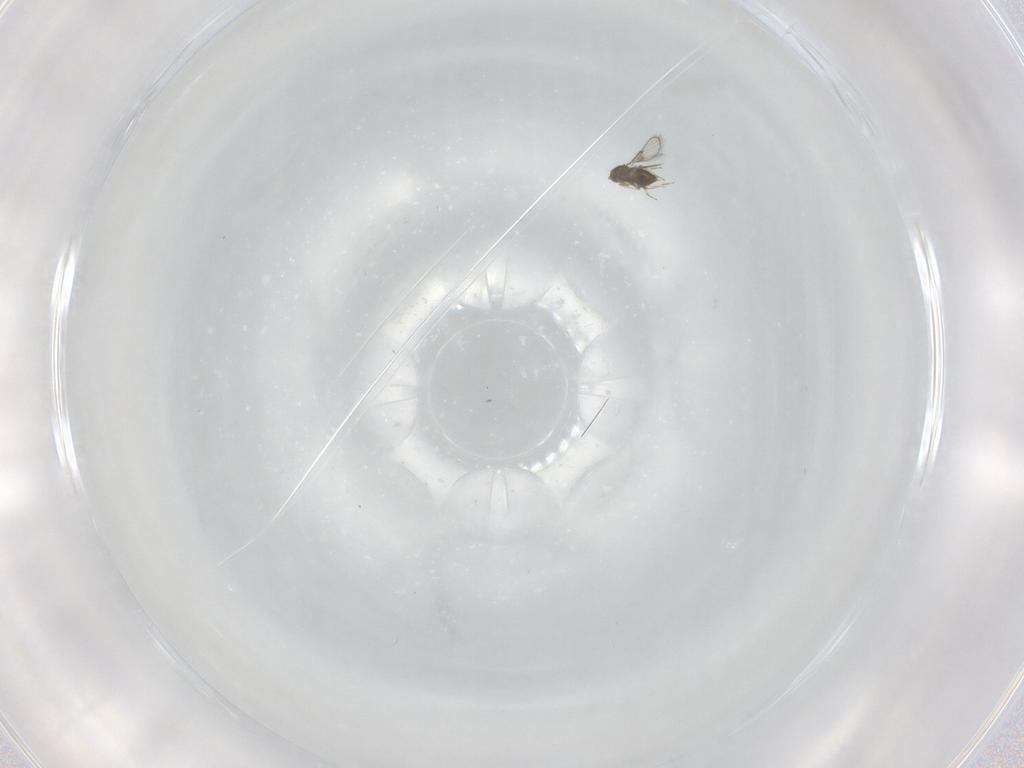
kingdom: Animalia
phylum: Arthropoda
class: Insecta
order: Hymenoptera
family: Trichogrammatidae
